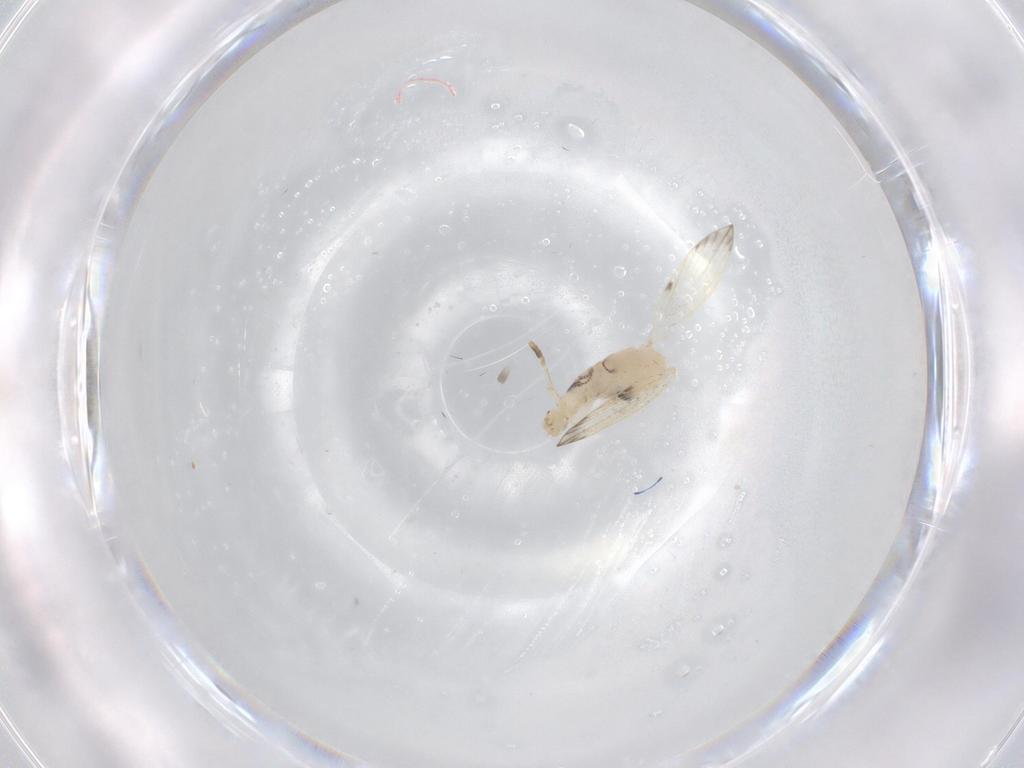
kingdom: Animalia
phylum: Arthropoda
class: Insecta
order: Diptera
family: Psychodidae
